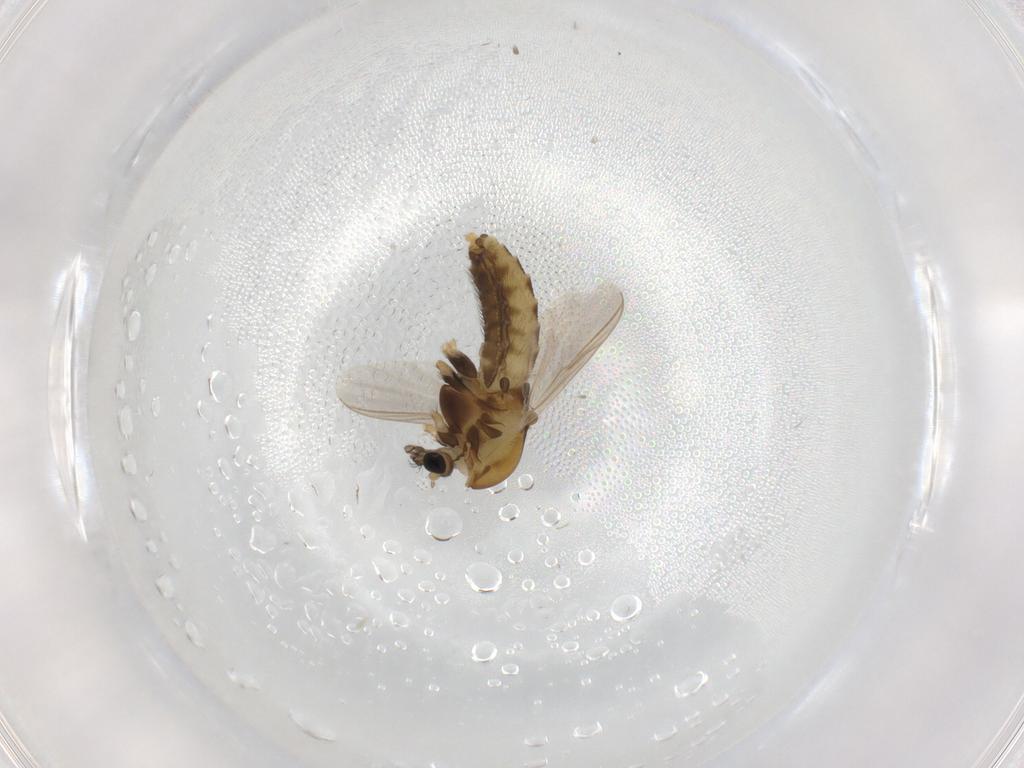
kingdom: Animalia
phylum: Arthropoda
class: Insecta
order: Diptera
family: Chironomidae
